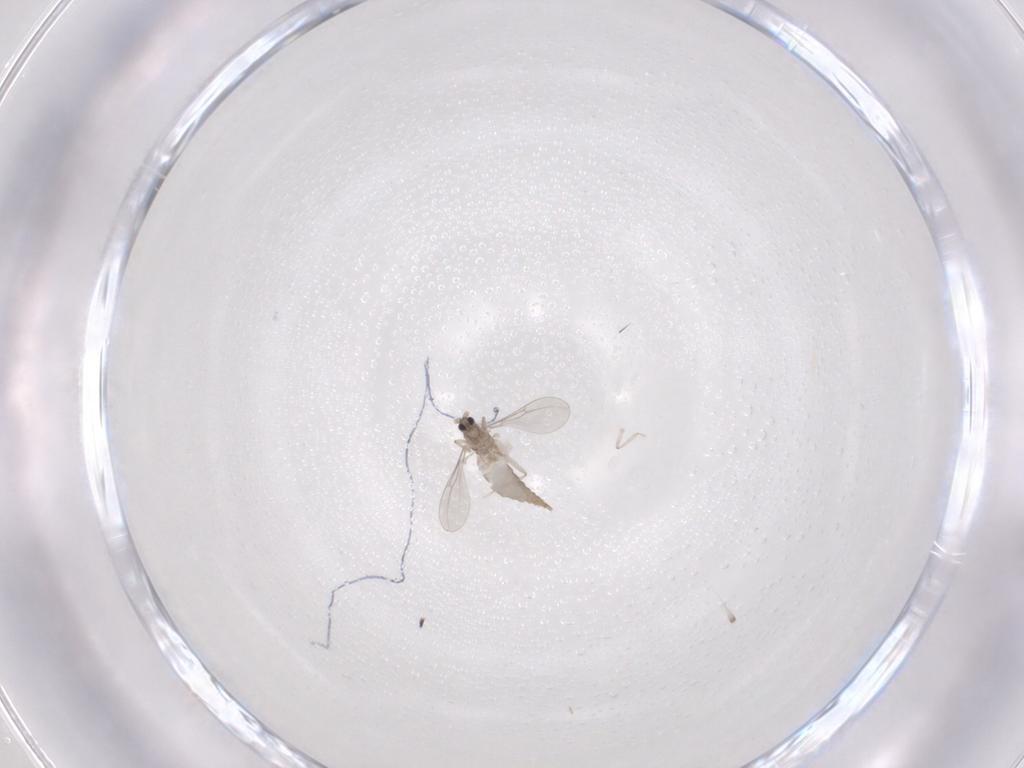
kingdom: Animalia
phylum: Arthropoda
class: Insecta
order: Diptera
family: Cecidomyiidae
